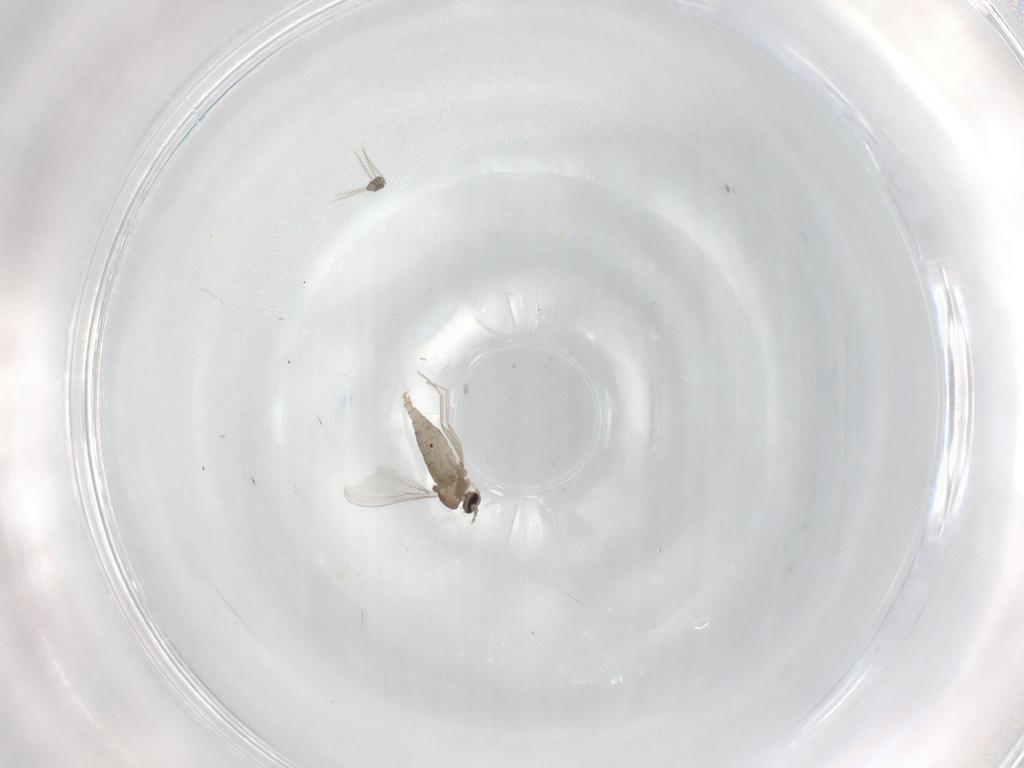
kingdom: Animalia
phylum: Arthropoda
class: Insecta
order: Diptera
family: Cecidomyiidae
